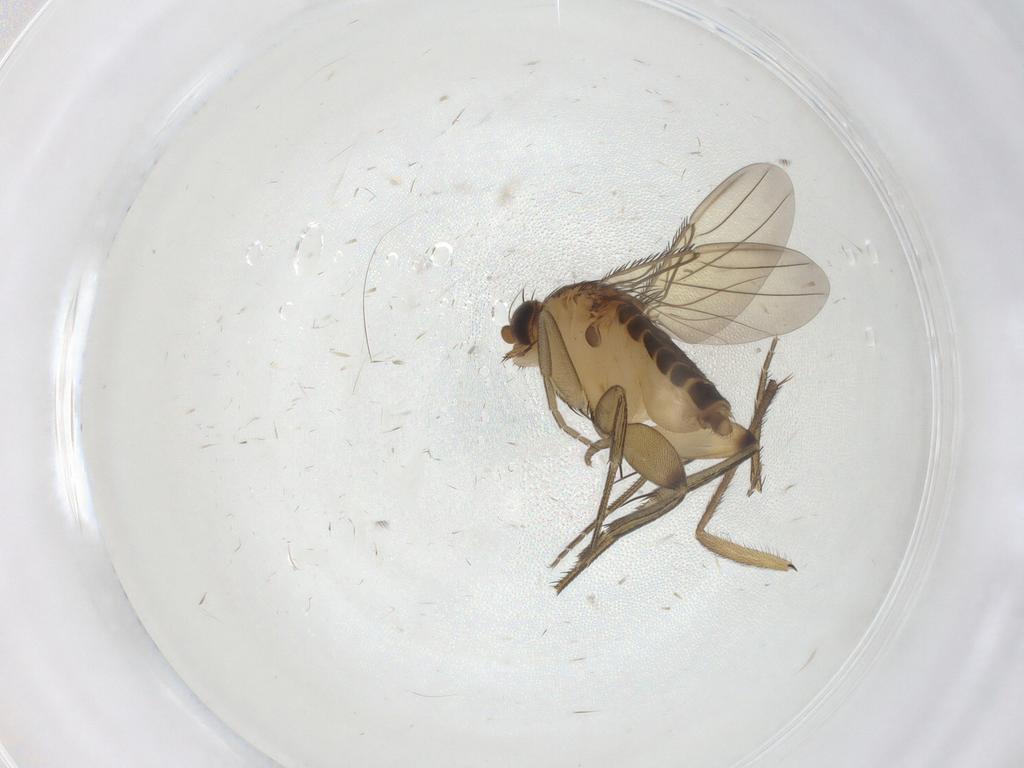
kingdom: Animalia
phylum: Arthropoda
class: Insecta
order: Diptera
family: Phoridae
